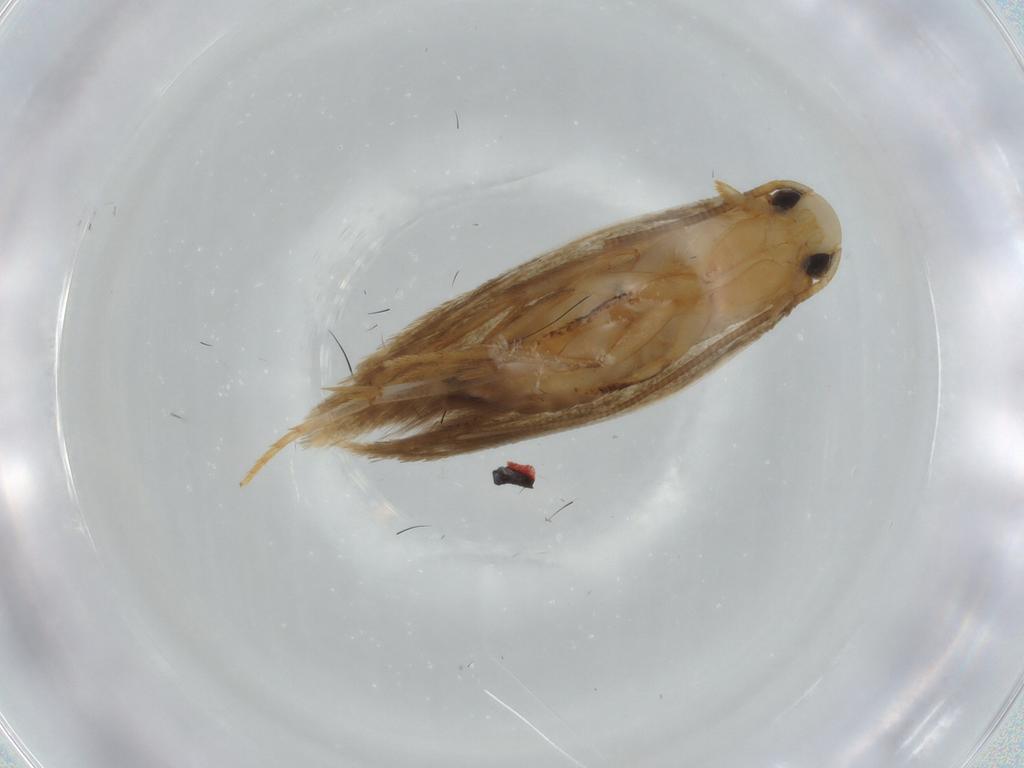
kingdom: Animalia
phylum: Arthropoda
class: Insecta
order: Lepidoptera
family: Tineidae
